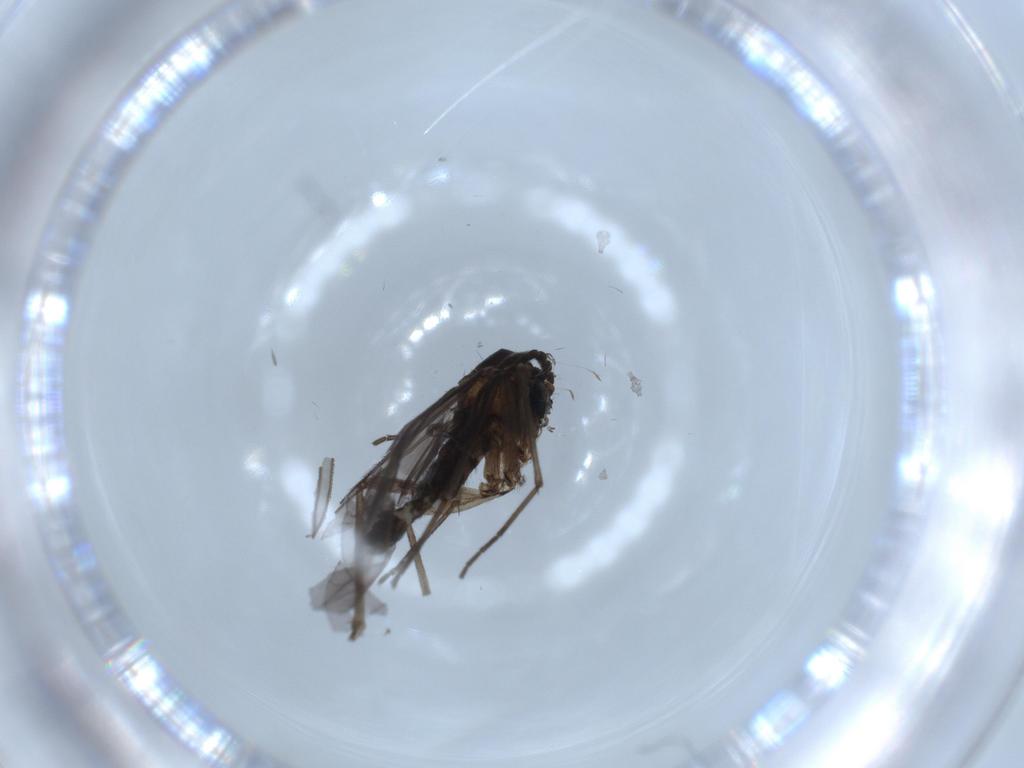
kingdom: Animalia
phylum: Arthropoda
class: Insecta
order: Diptera
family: Sciaridae
